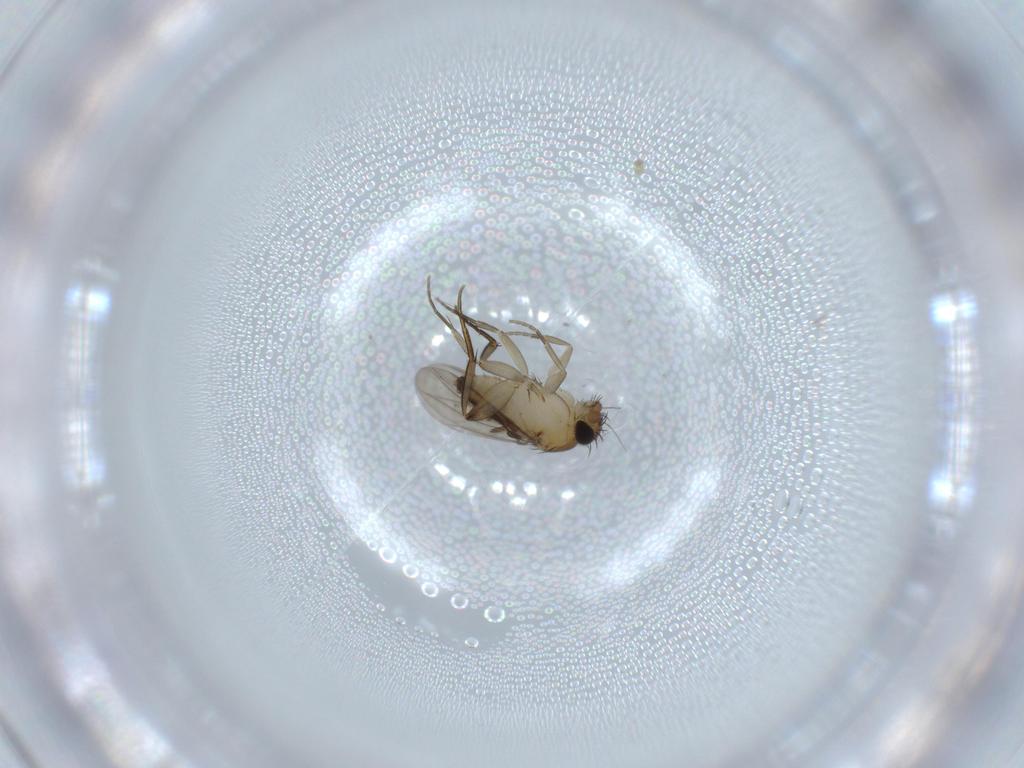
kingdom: Animalia
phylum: Arthropoda
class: Insecta
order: Diptera
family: Phoridae
